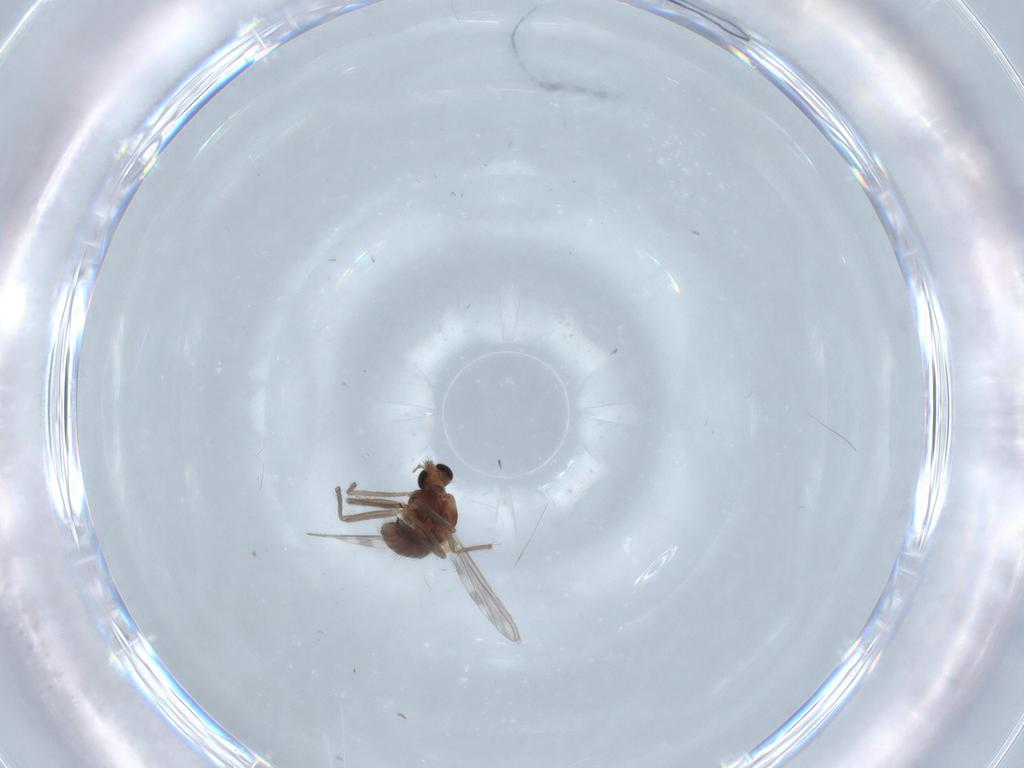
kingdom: Animalia
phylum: Arthropoda
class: Insecta
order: Diptera
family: Chironomidae
